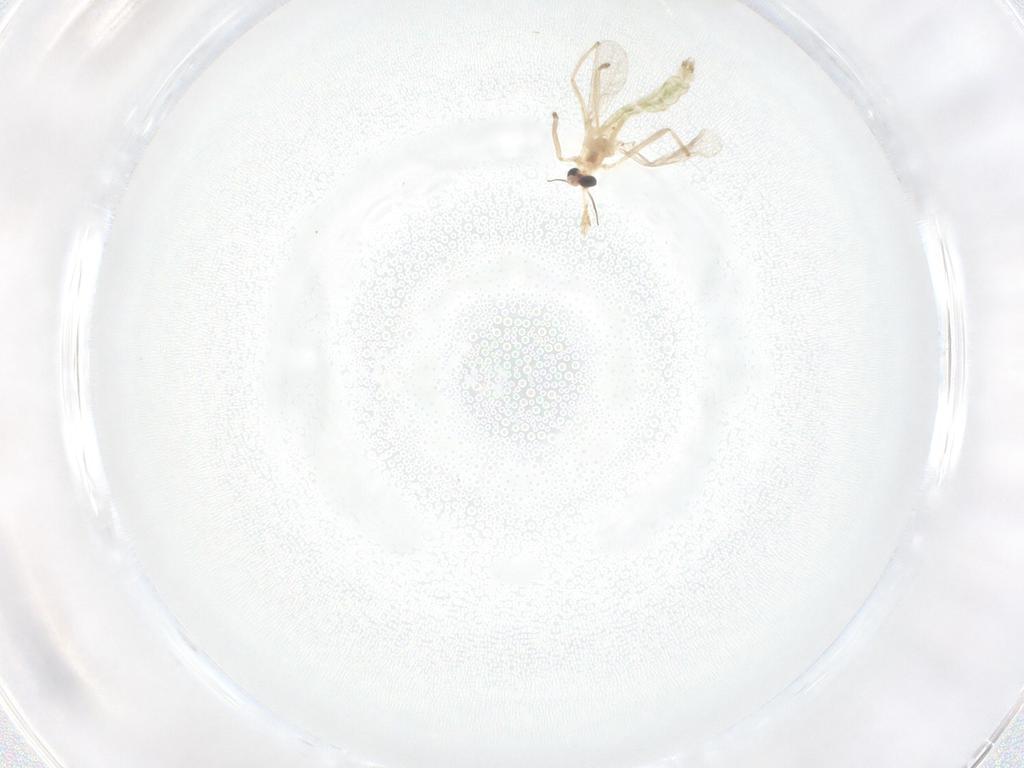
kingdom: Animalia
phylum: Arthropoda
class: Insecta
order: Diptera
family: Chironomidae
